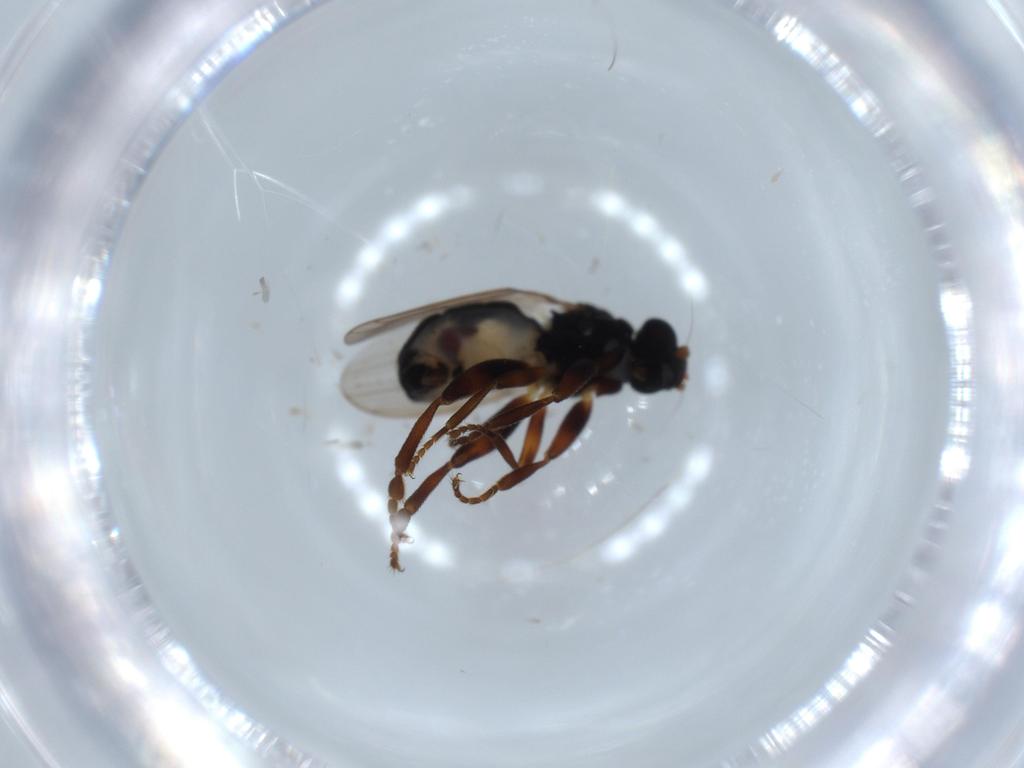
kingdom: Animalia
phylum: Arthropoda
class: Insecta
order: Diptera
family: Sphaeroceridae
